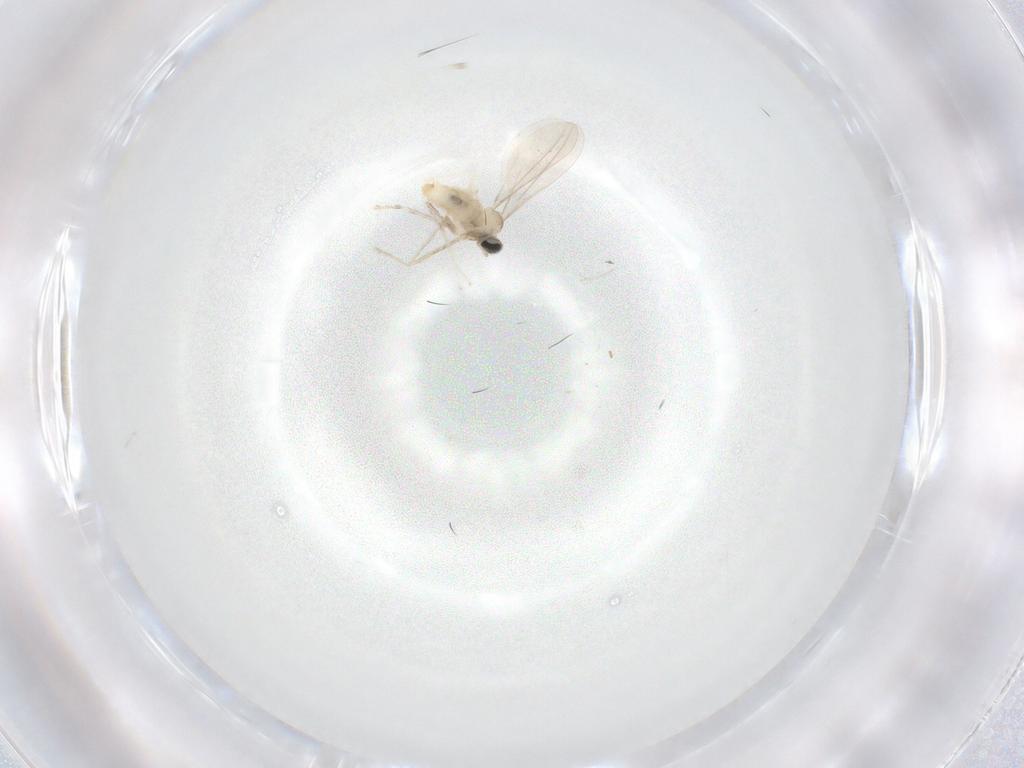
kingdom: Animalia
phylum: Arthropoda
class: Insecta
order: Diptera
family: Cecidomyiidae
